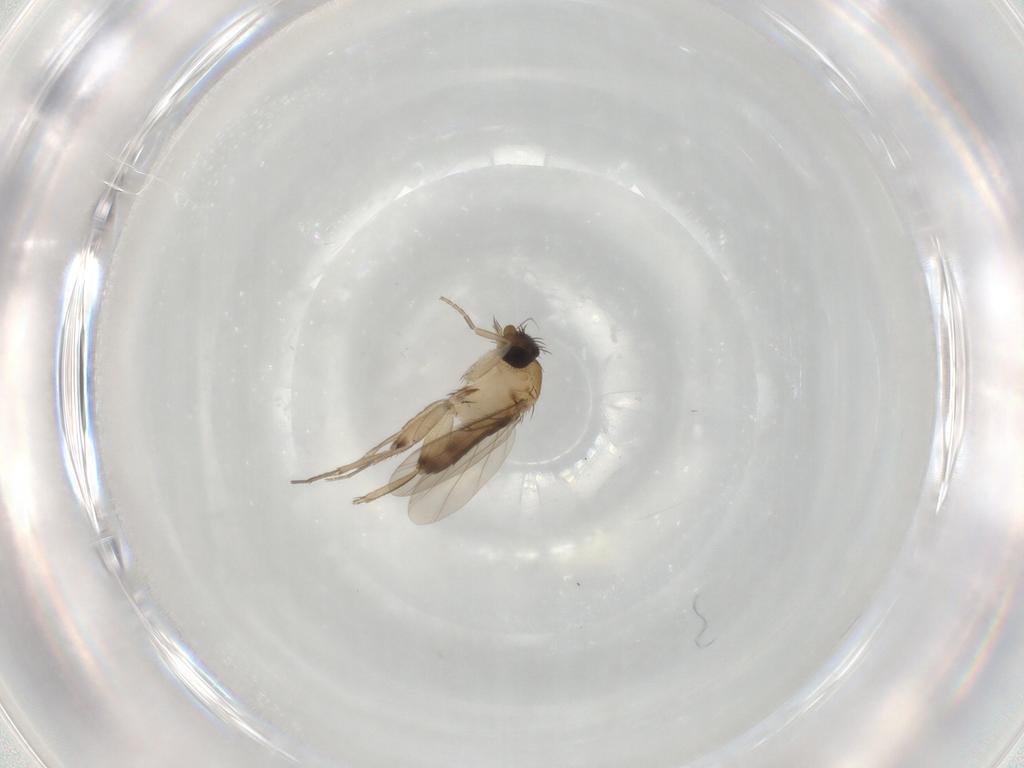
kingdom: Animalia
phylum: Arthropoda
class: Insecta
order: Diptera
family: Phoridae
